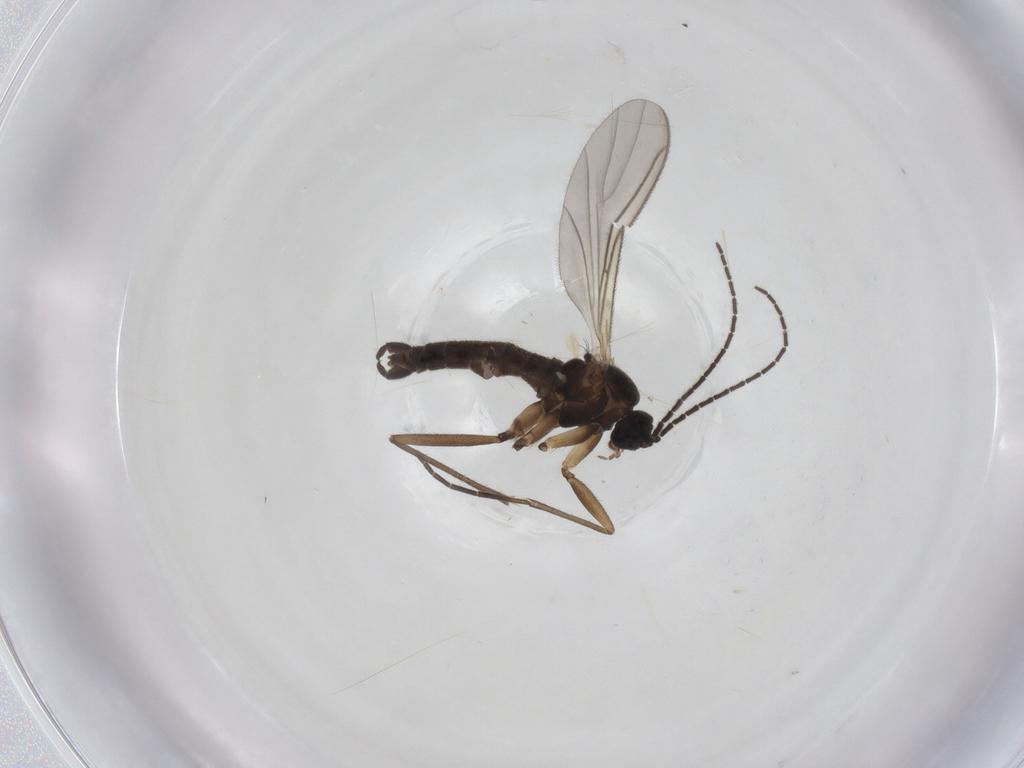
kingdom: Animalia
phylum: Arthropoda
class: Insecta
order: Diptera
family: Sciaridae
